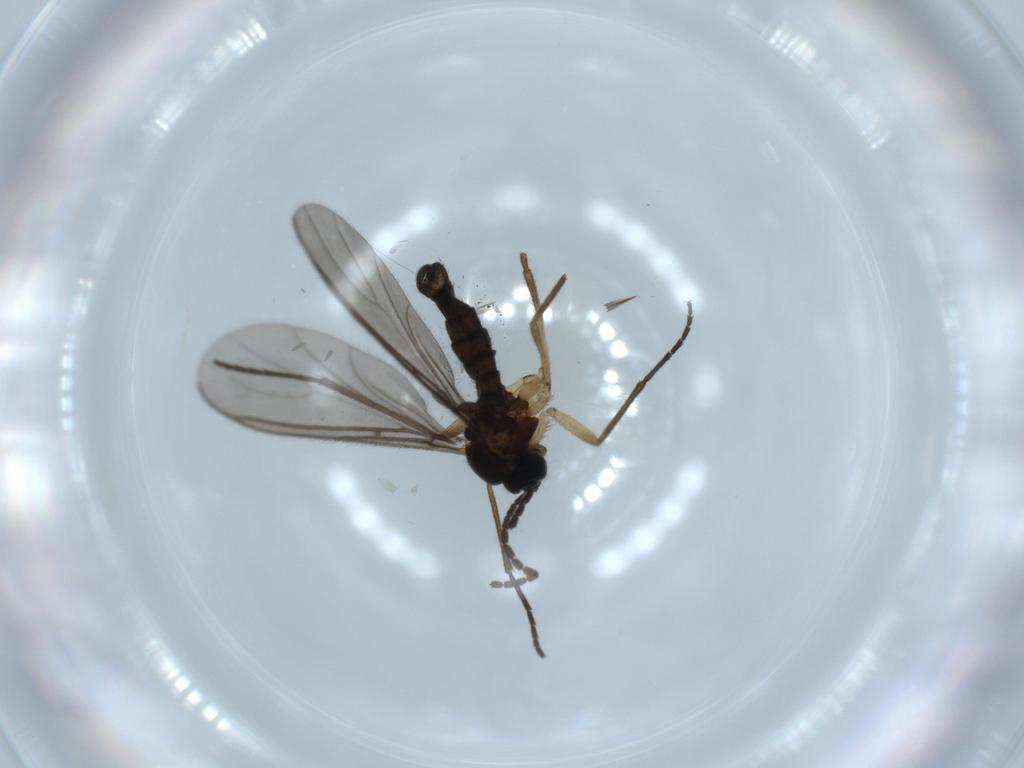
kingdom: Animalia
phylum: Arthropoda
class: Insecta
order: Diptera
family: Sciaridae
